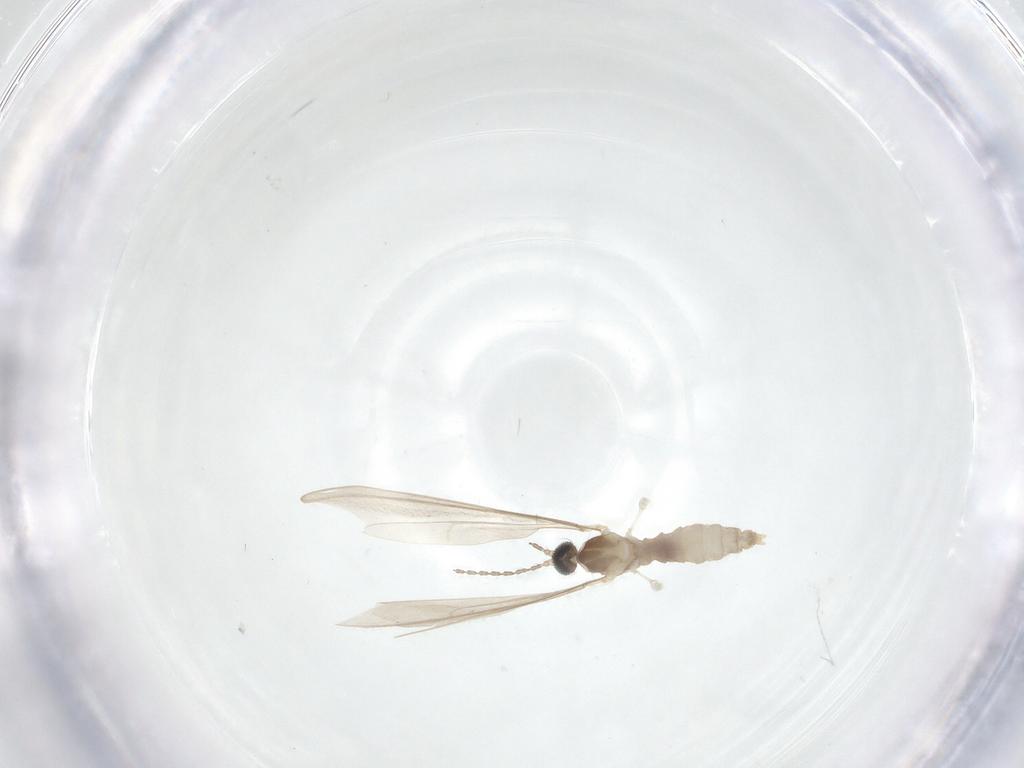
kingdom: Animalia
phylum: Arthropoda
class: Insecta
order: Diptera
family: Cecidomyiidae
